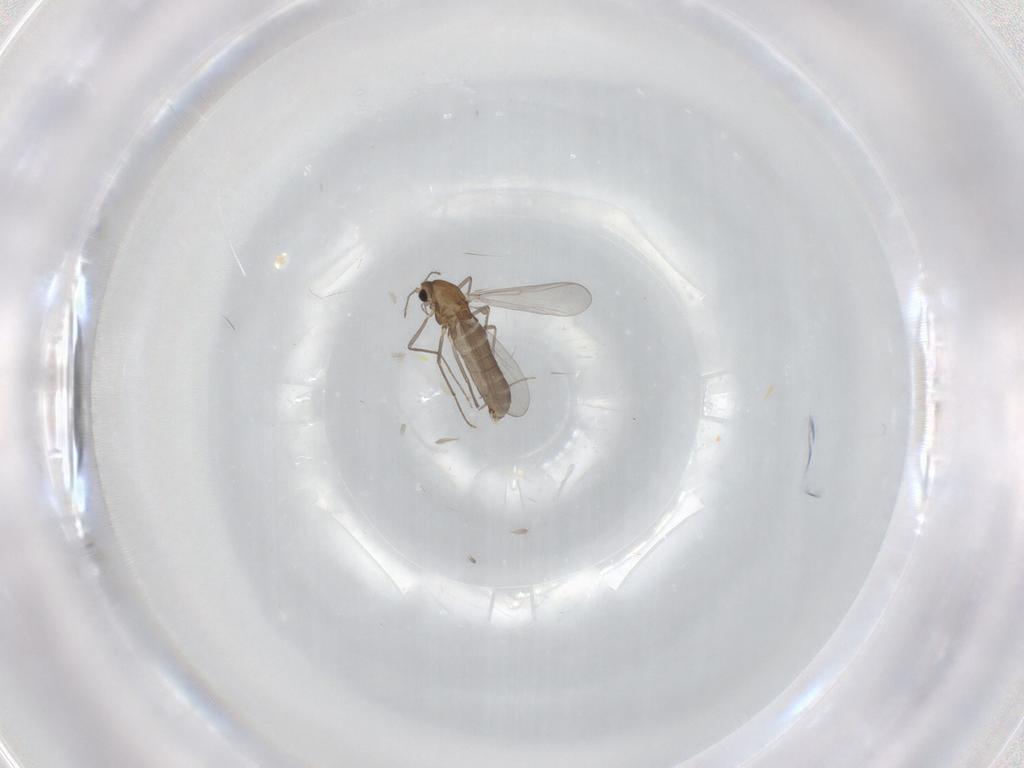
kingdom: Animalia
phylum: Arthropoda
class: Insecta
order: Diptera
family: Chironomidae
